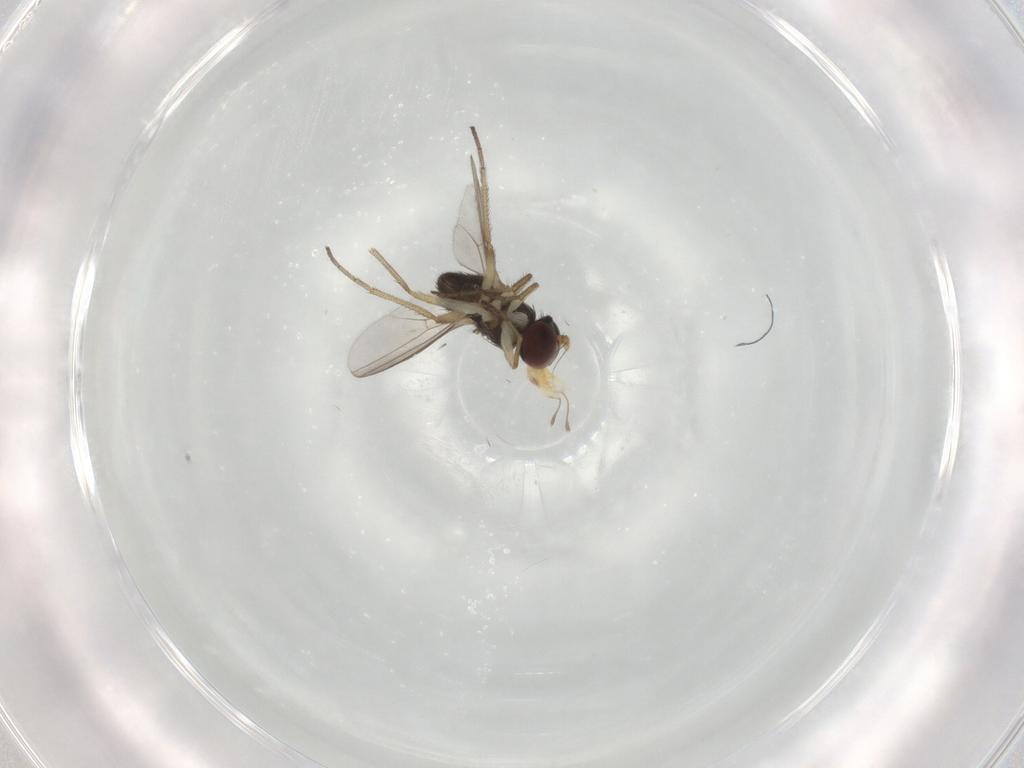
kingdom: Animalia
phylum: Arthropoda
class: Insecta
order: Diptera
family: Dolichopodidae
